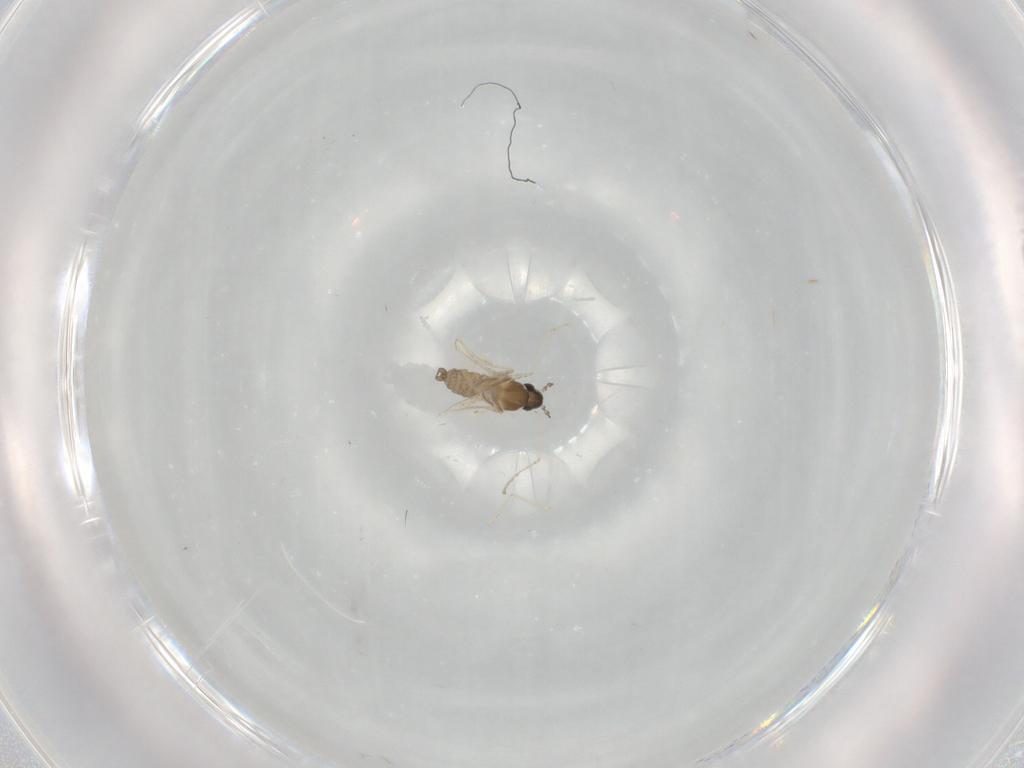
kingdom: Animalia
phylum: Arthropoda
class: Insecta
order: Diptera
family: Cecidomyiidae
